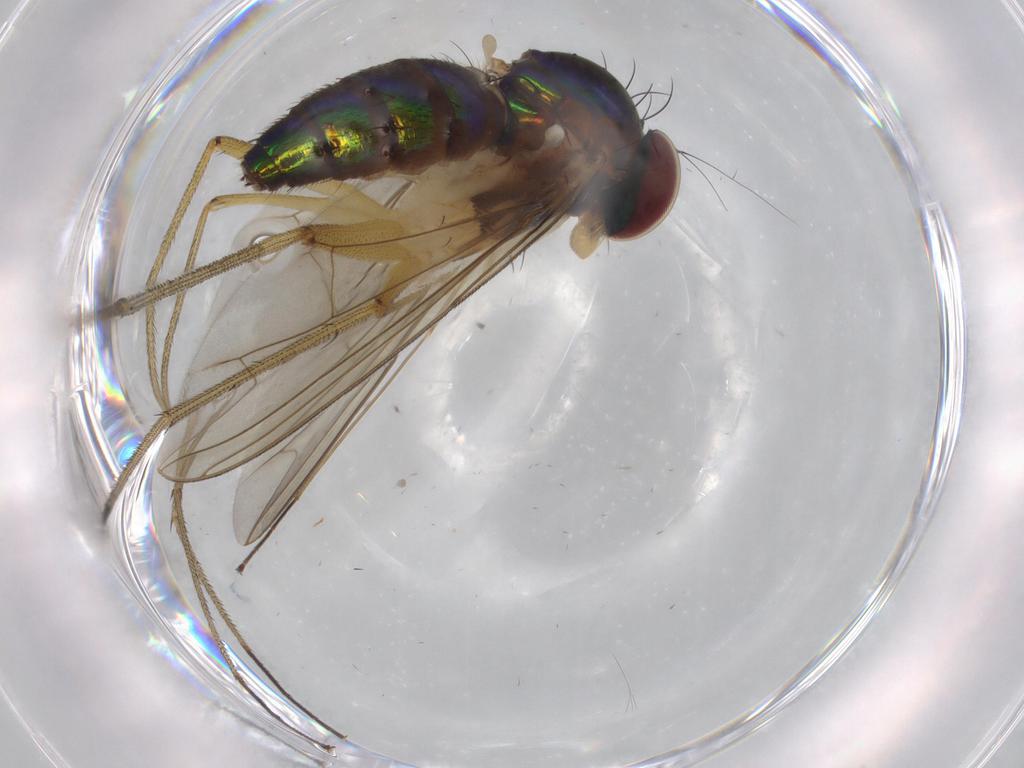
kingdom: Animalia
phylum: Arthropoda
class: Insecta
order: Diptera
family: Dolichopodidae
